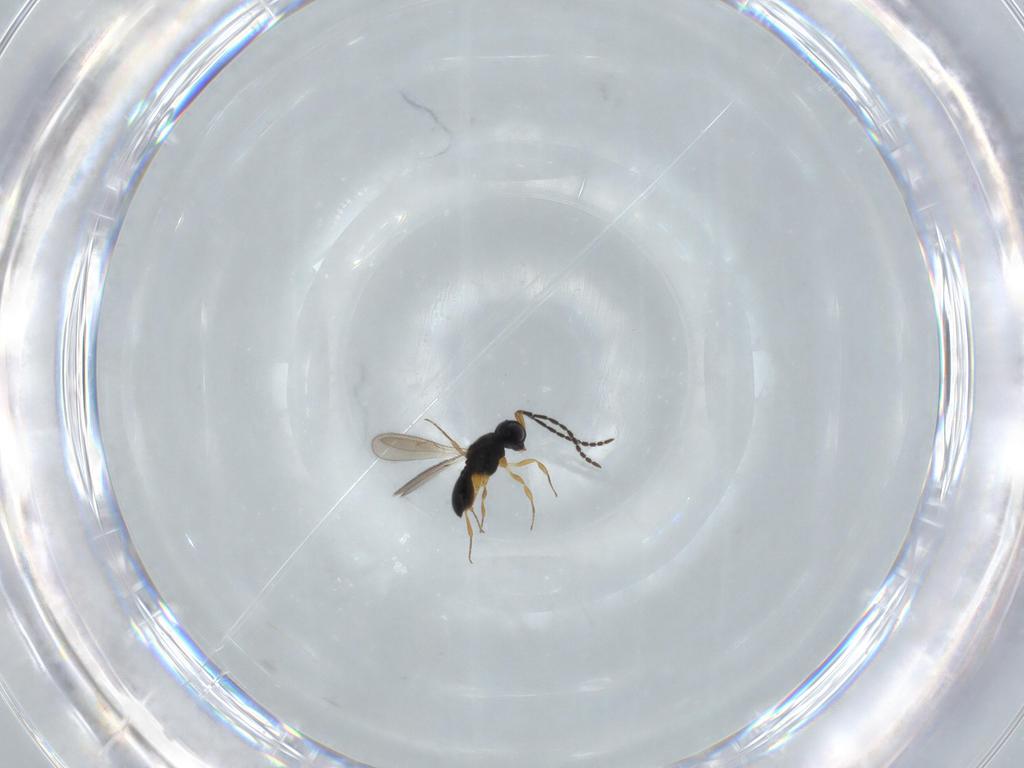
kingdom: Animalia
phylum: Arthropoda
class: Insecta
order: Hymenoptera
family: Scelionidae
